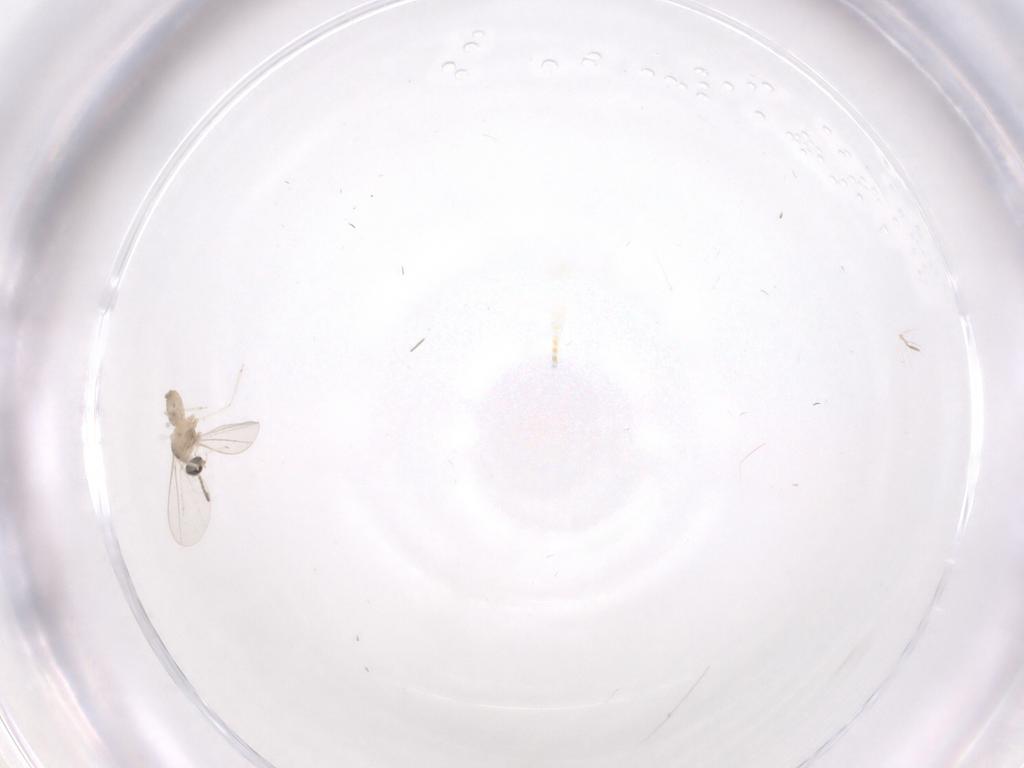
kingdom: Animalia
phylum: Arthropoda
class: Insecta
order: Diptera
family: Chironomidae
